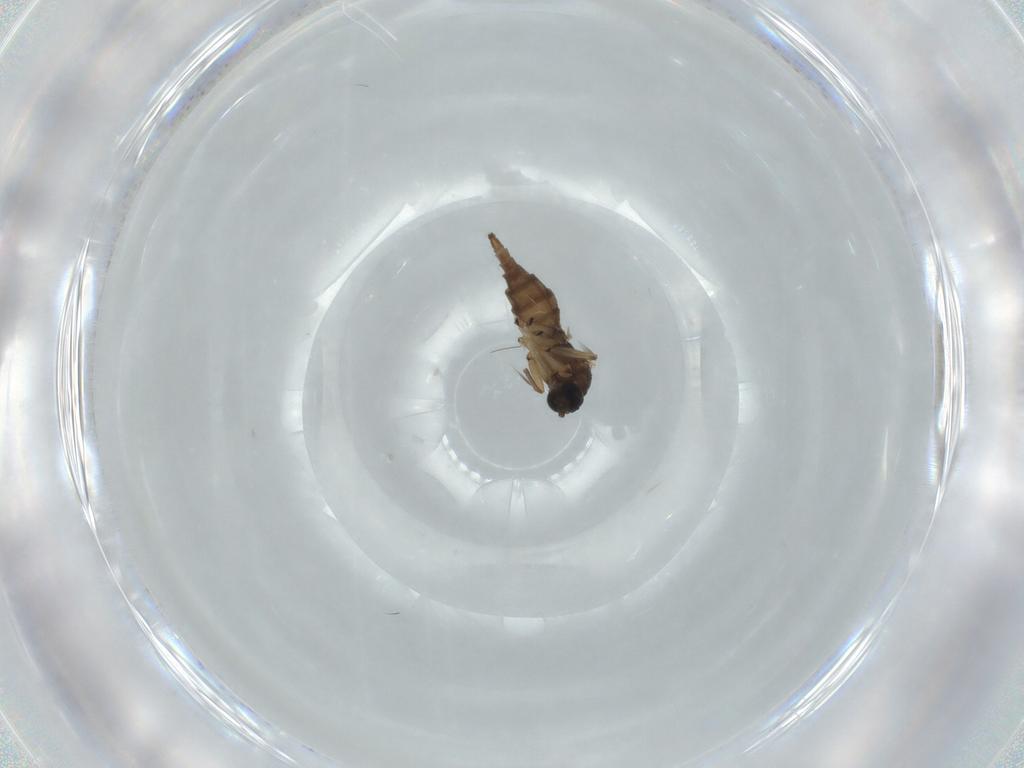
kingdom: Animalia
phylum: Arthropoda
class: Insecta
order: Diptera
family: Sciaridae
